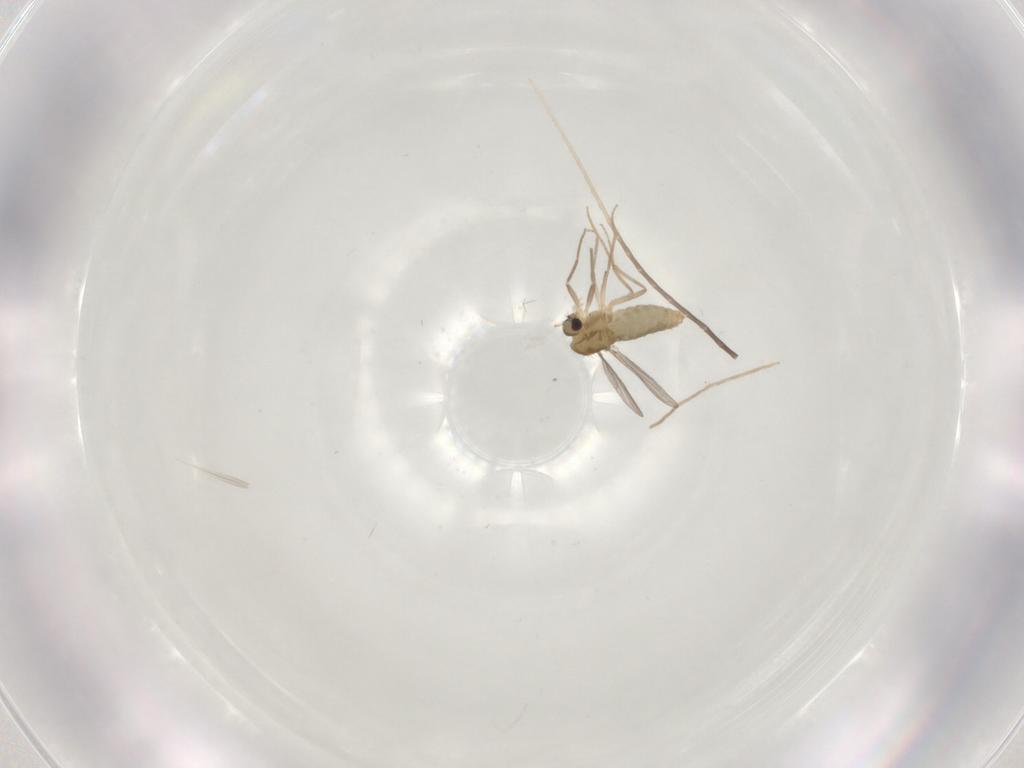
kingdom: Animalia
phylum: Arthropoda
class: Insecta
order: Diptera
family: Chironomidae
